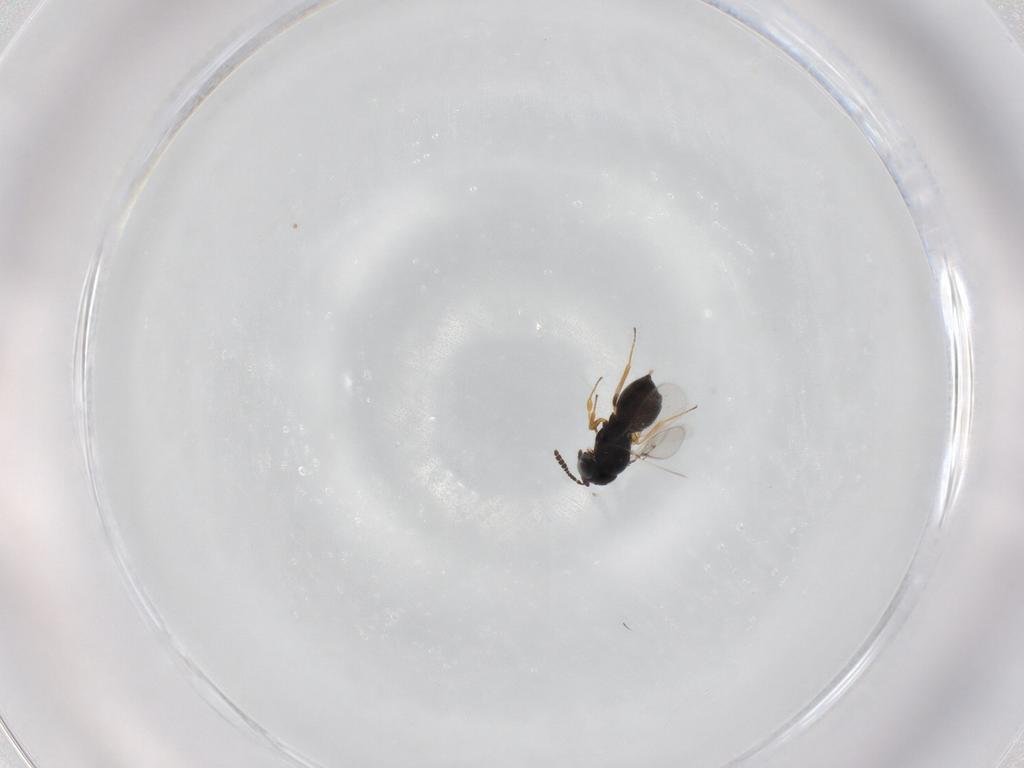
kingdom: Animalia
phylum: Arthropoda
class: Insecta
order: Hymenoptera
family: Scelionidae
